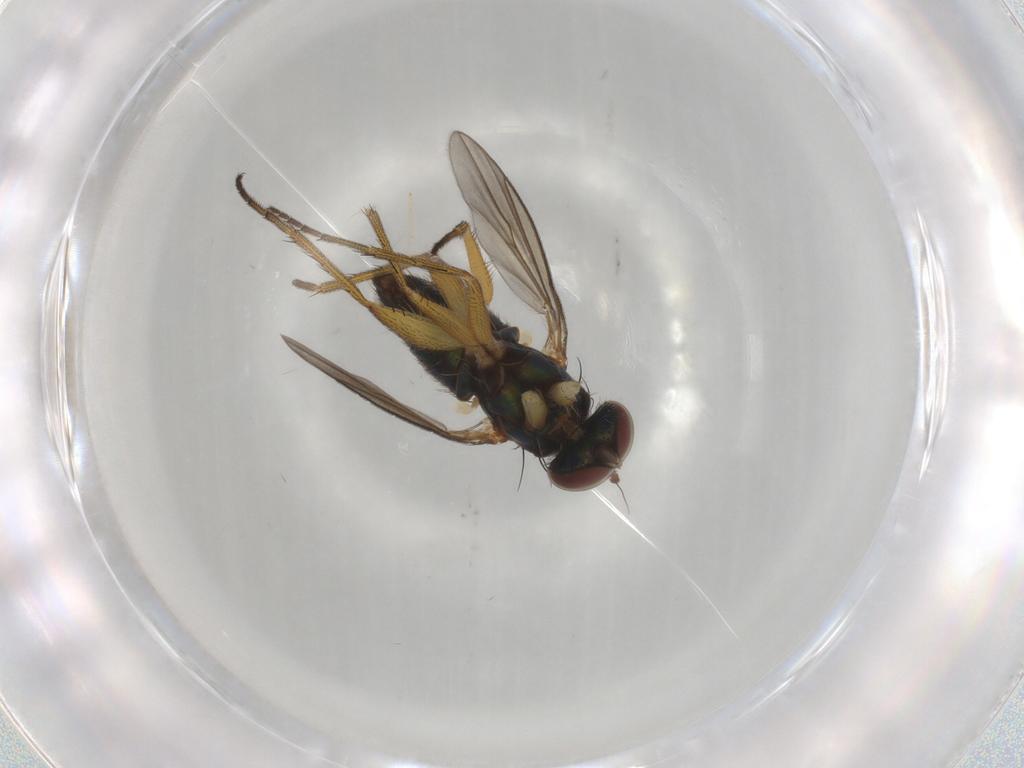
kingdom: Animalia
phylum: Arthropoda
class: Insecta
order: Diptera
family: Chironomidae
